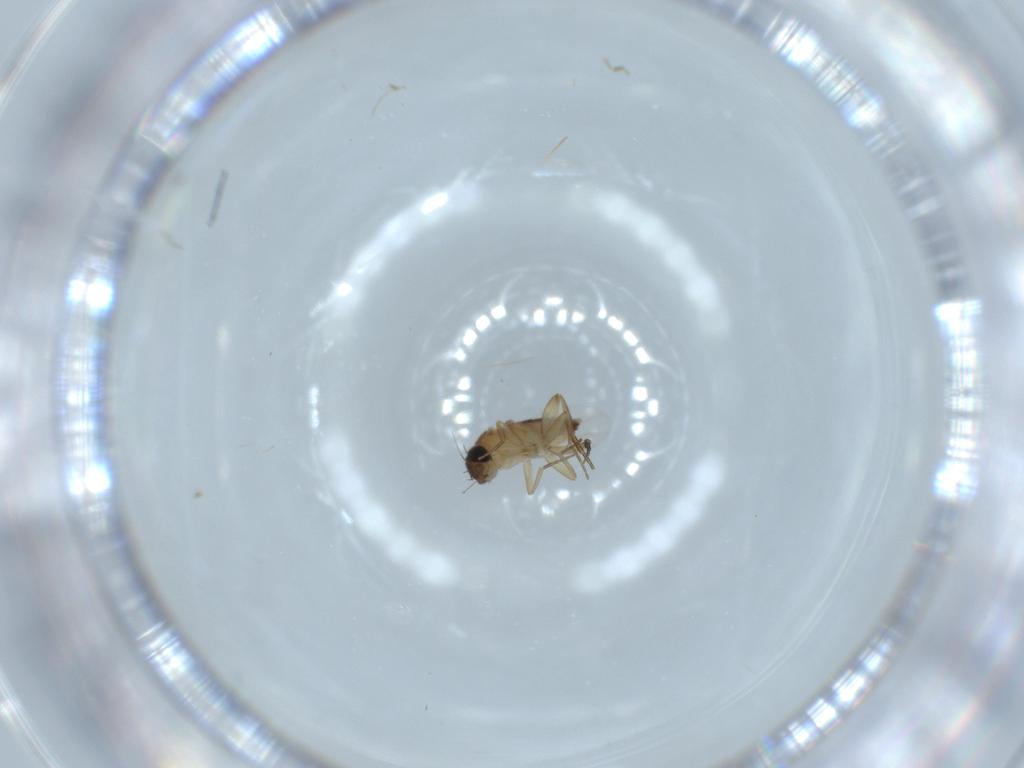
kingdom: Animalia
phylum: Arthropoda
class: Insecta
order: Diptera
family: Phoridae
